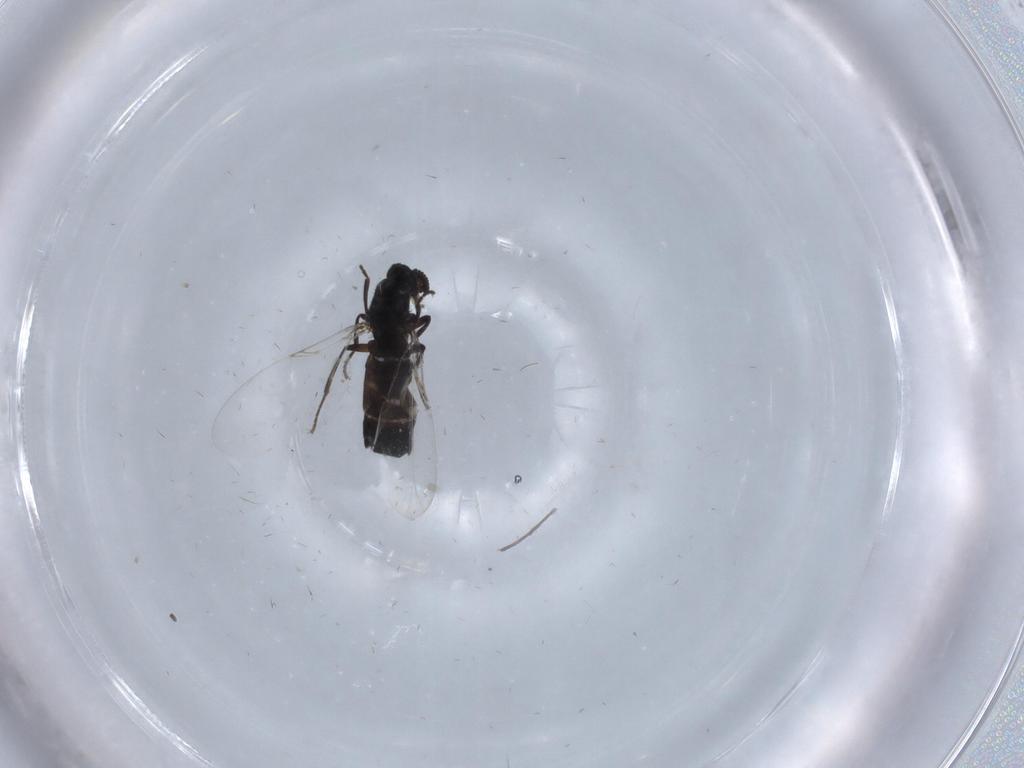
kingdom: Animalia
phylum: Arthropoda
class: Insecta
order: Diptera
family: Scatopsidae
